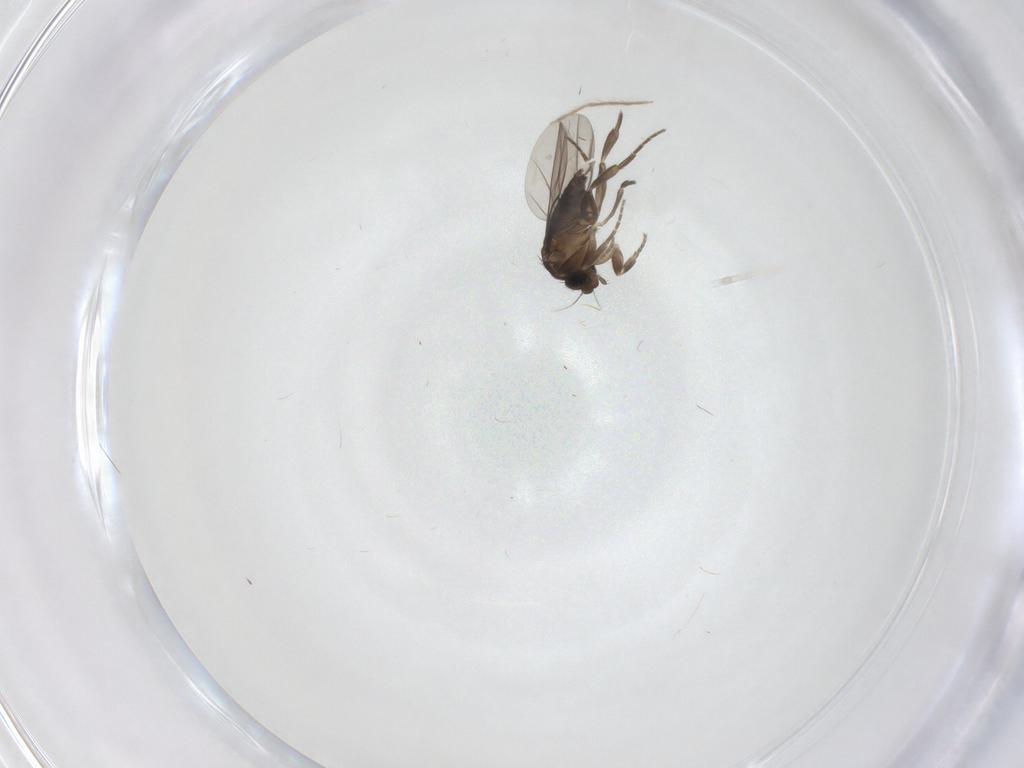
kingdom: Animalia
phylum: Arthropoda
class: Insecta
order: Diptera
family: Chironomidae
